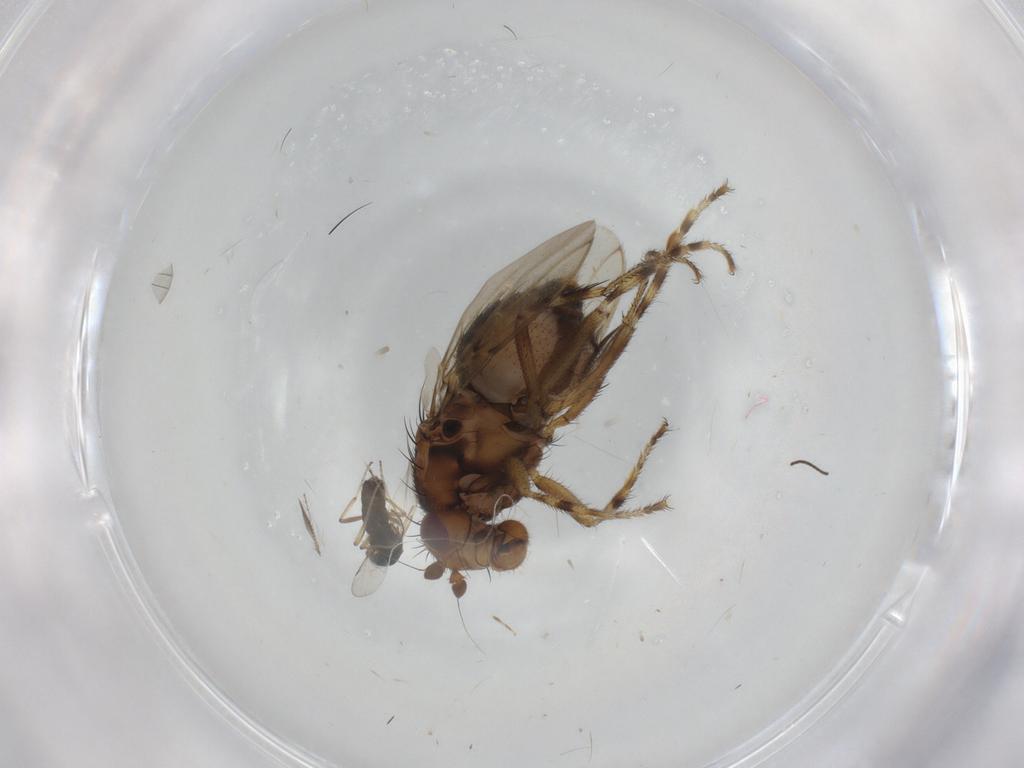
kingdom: Animalia
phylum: Arthropoda
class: Insecta
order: Diptera
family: Sphaeroceridae
